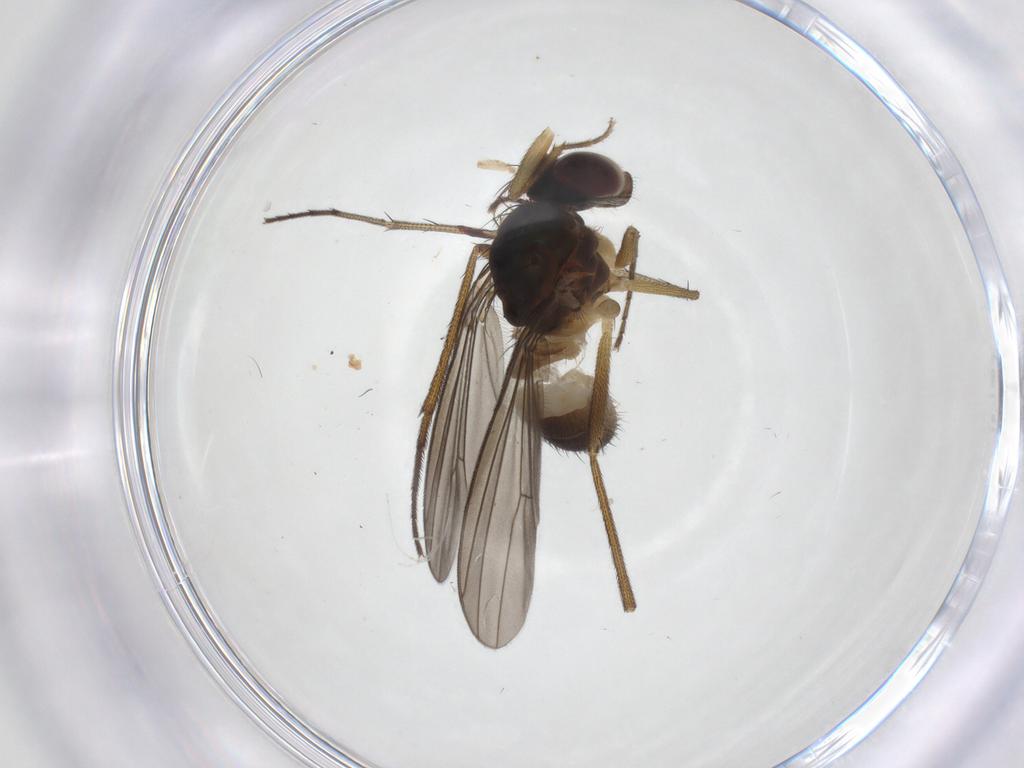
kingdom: Animalia
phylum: Arthropoda
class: Insecta
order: Diptera
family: Dolichopodidae
